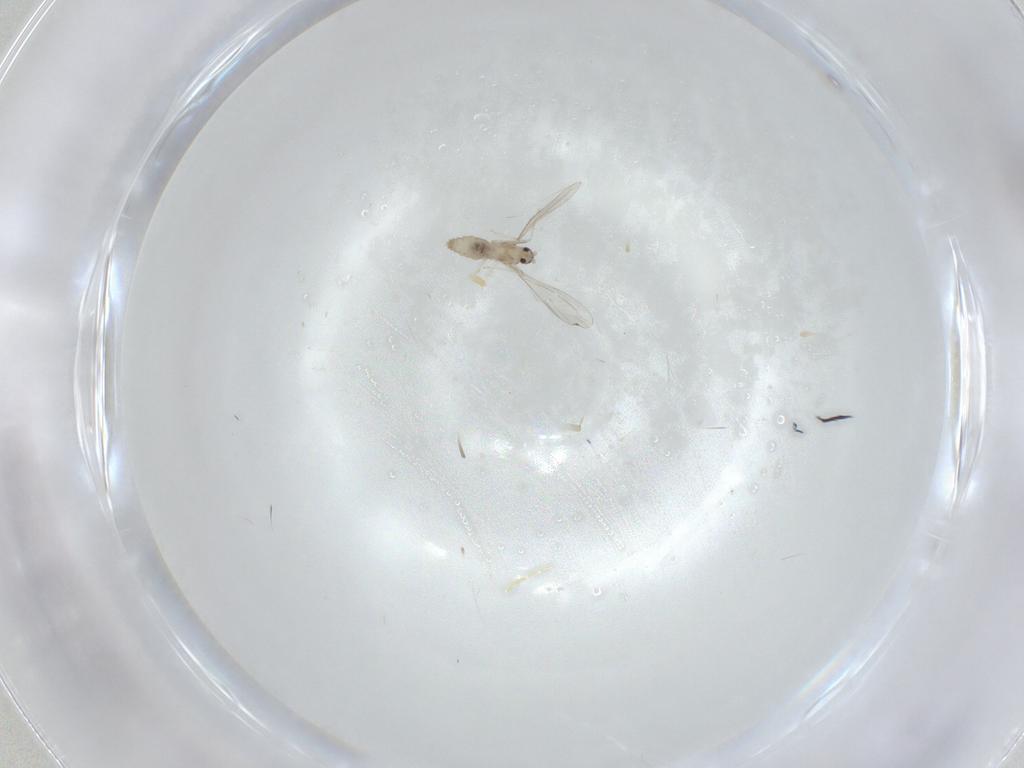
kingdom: Animalia
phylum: Arthropoda
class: Insecta
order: Diptera
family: Cecidomyiidae
